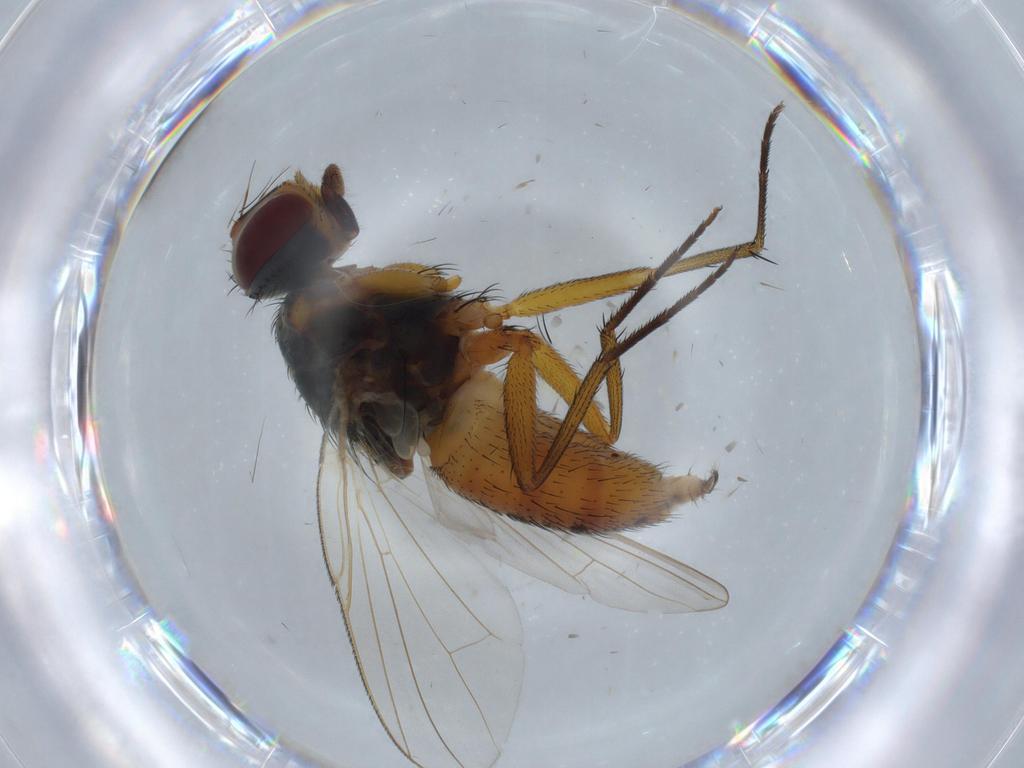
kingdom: Animalia
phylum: Arthropoda
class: Insecta
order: Diptera
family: Muscidae
